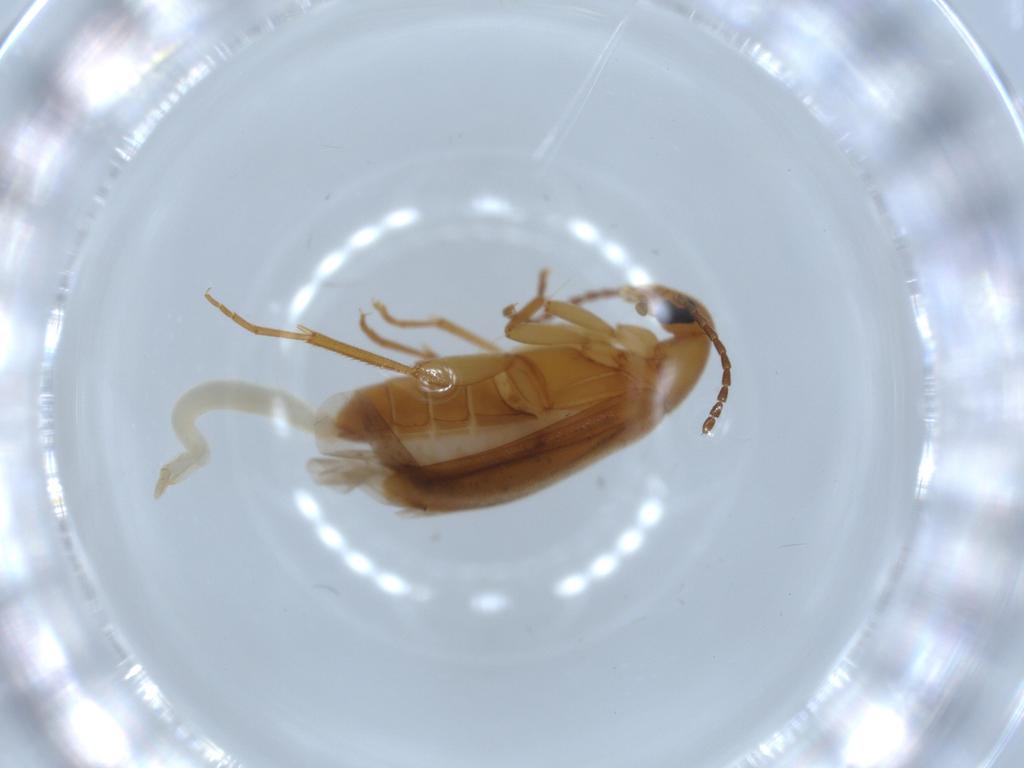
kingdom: Animalia
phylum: Arthropoda
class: Insecta
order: Coleoptera
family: Scraptiidae
